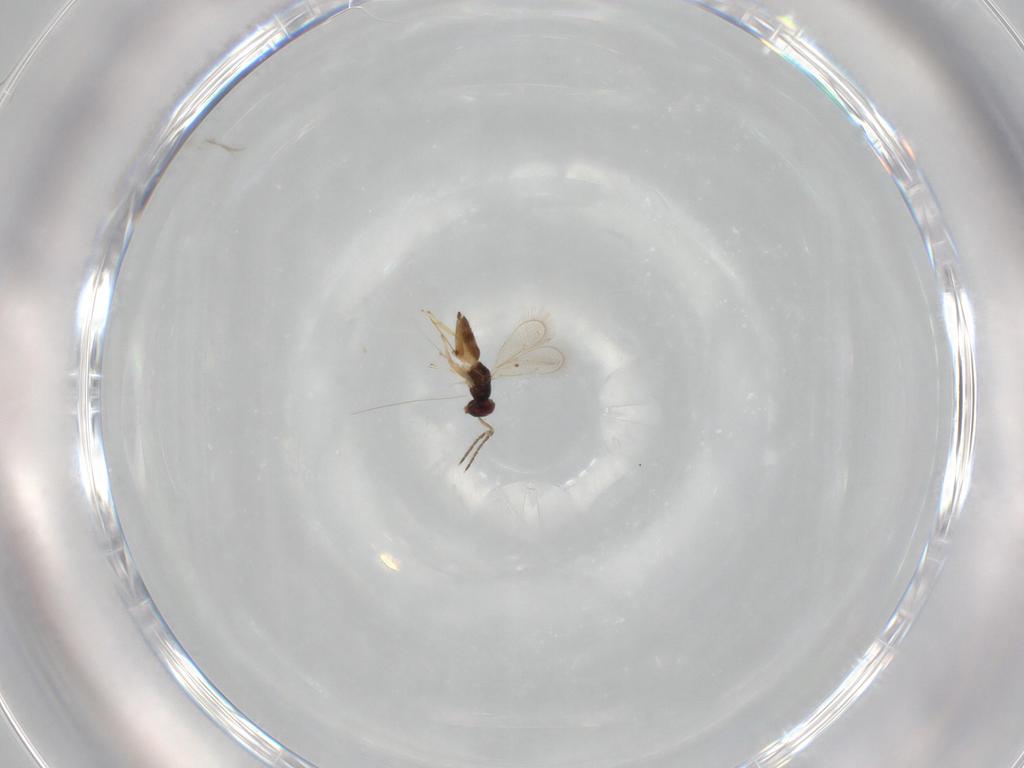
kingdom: Animalia
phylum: Arthropoda
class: Insecta
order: Hymenoptera
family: Eulophidae
